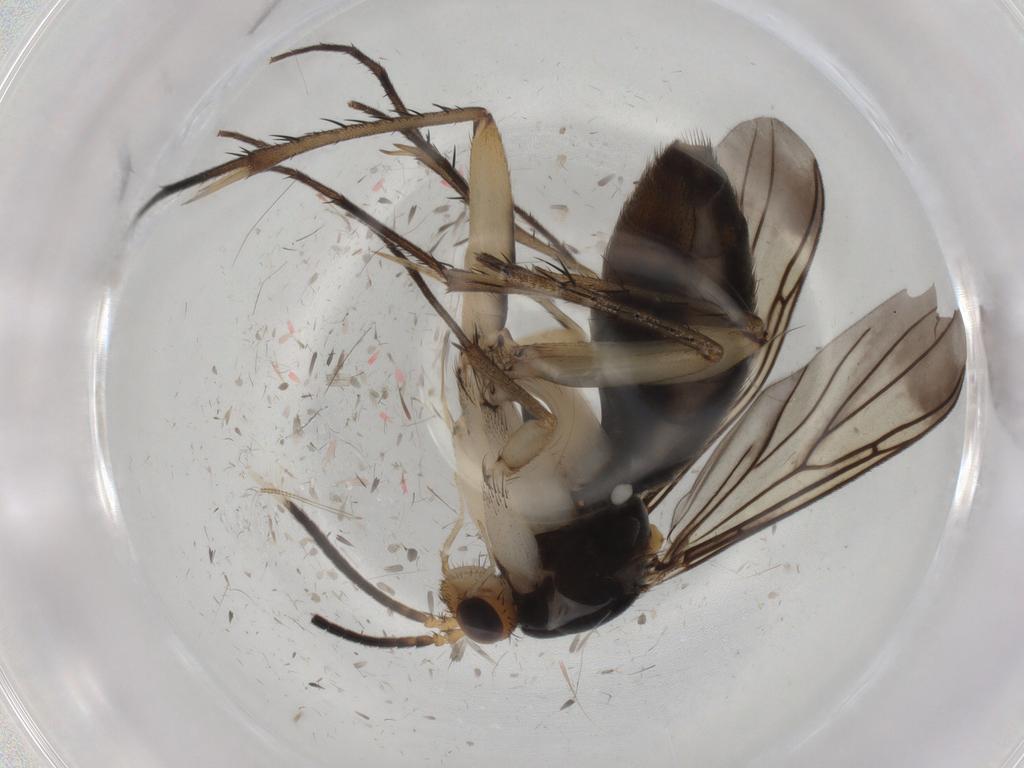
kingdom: Animalia
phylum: Arthropoda
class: Insecta
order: Diptera
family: Mycetophilidae
